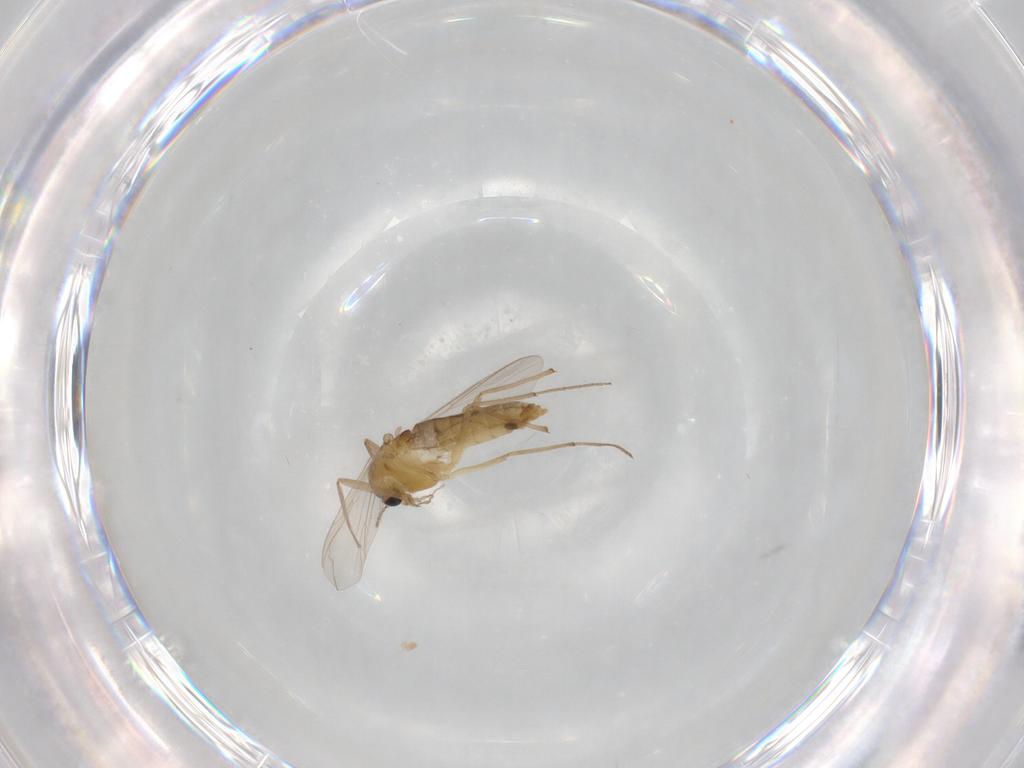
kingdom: Animalia
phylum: Arthropoda
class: Insecta
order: Diptera
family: Chironomidae
